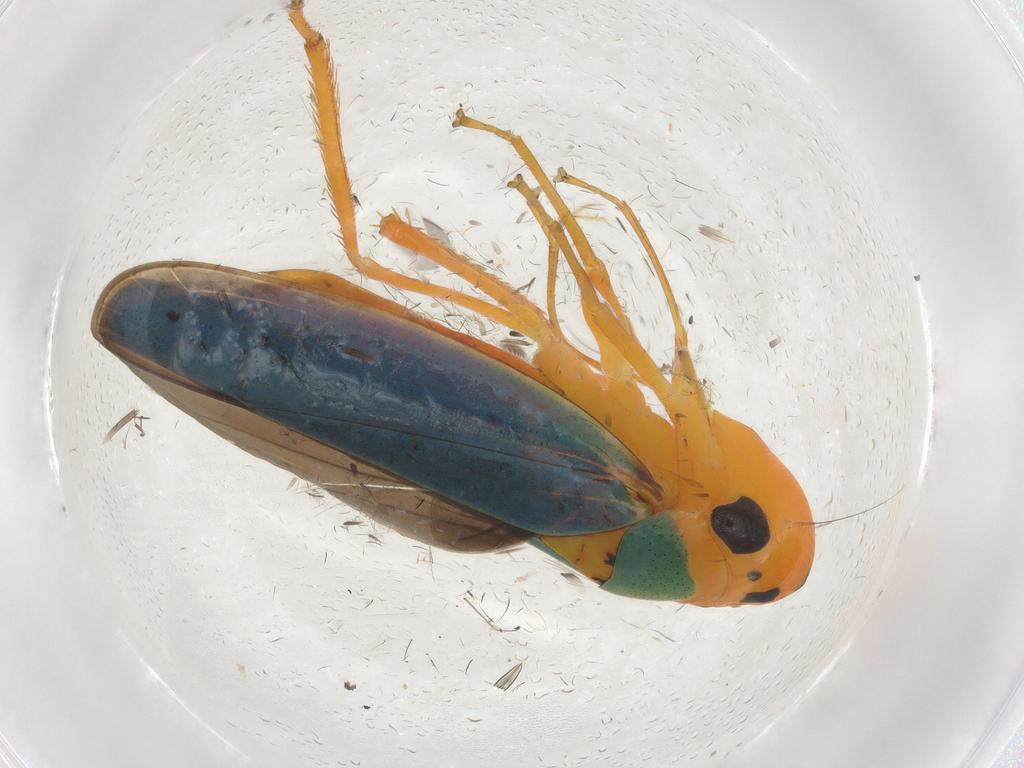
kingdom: Animalia
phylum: Arthropoda
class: Insecta
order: Hemiptera
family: Cicadellidae
